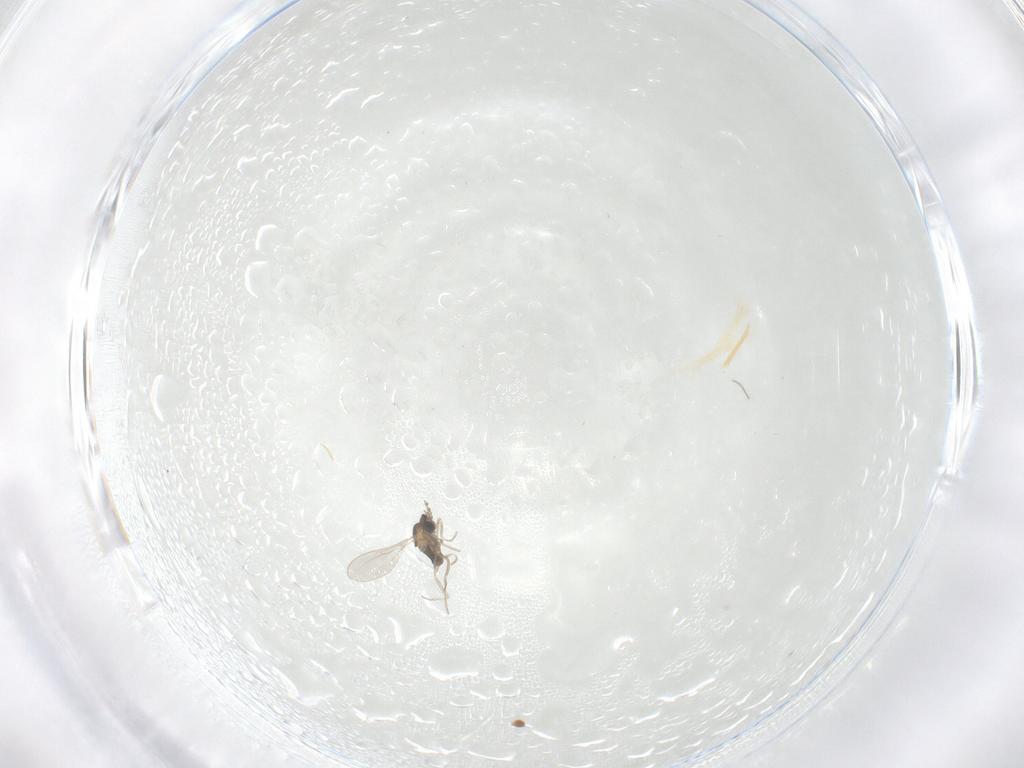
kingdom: Animalia
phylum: Arthropoda
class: Insecta
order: Diptera
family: Cecidomyiidae
